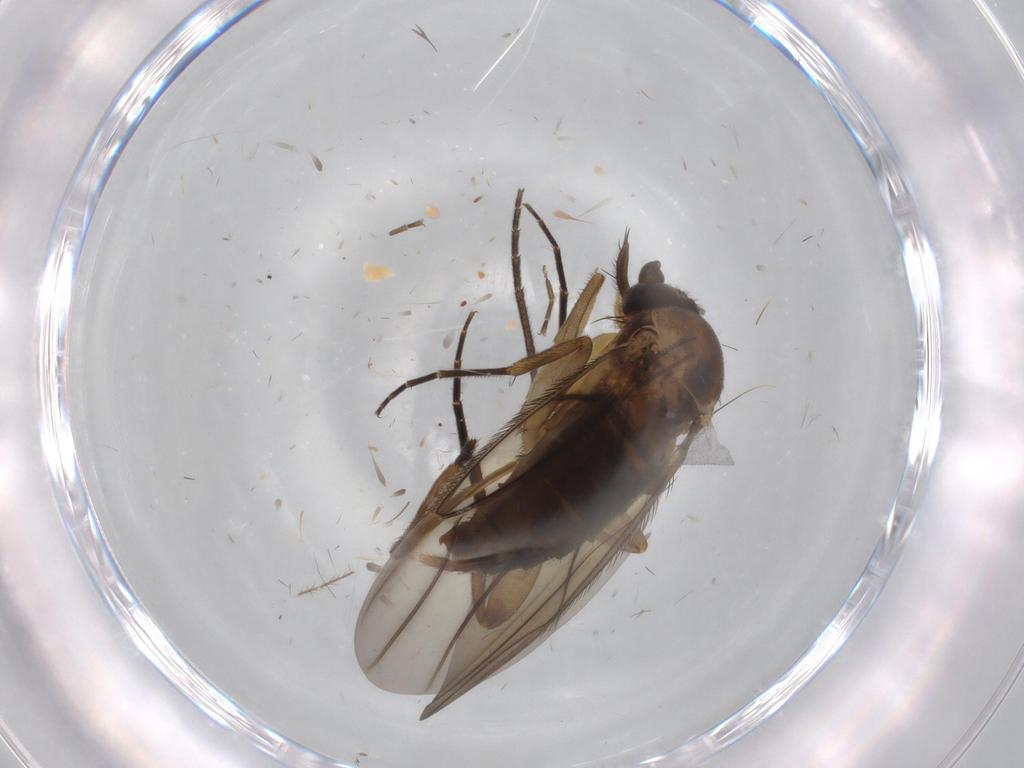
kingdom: Animalia
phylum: Arthropoda
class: Insecta
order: Diptera
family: Phoridae
